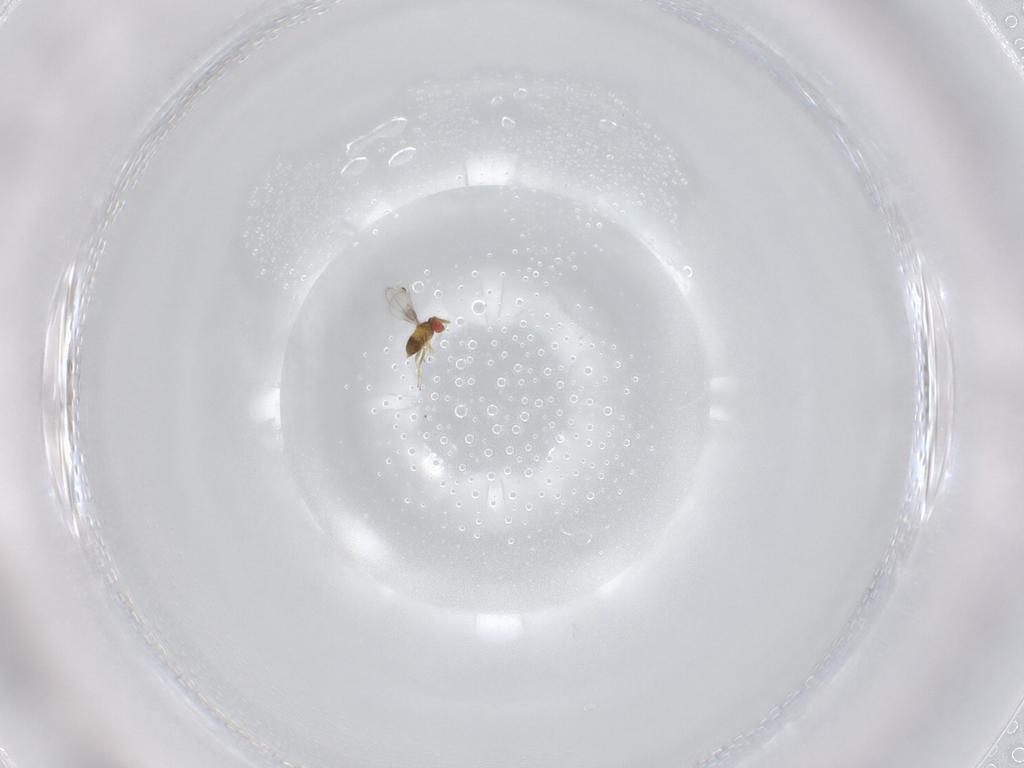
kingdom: Animalia
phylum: Arthropoda
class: Insecta
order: Hymenoptera
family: Trichogrammatidae
